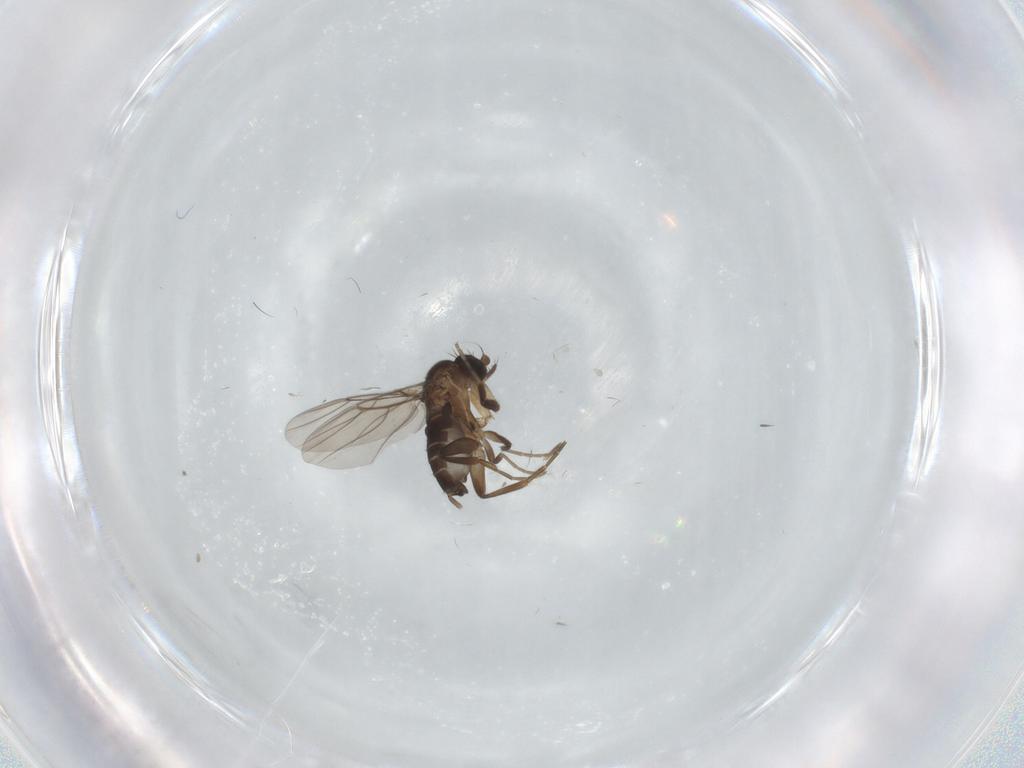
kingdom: Animalia
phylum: Arthropoda
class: Insecta
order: Diptera
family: Phoridae
